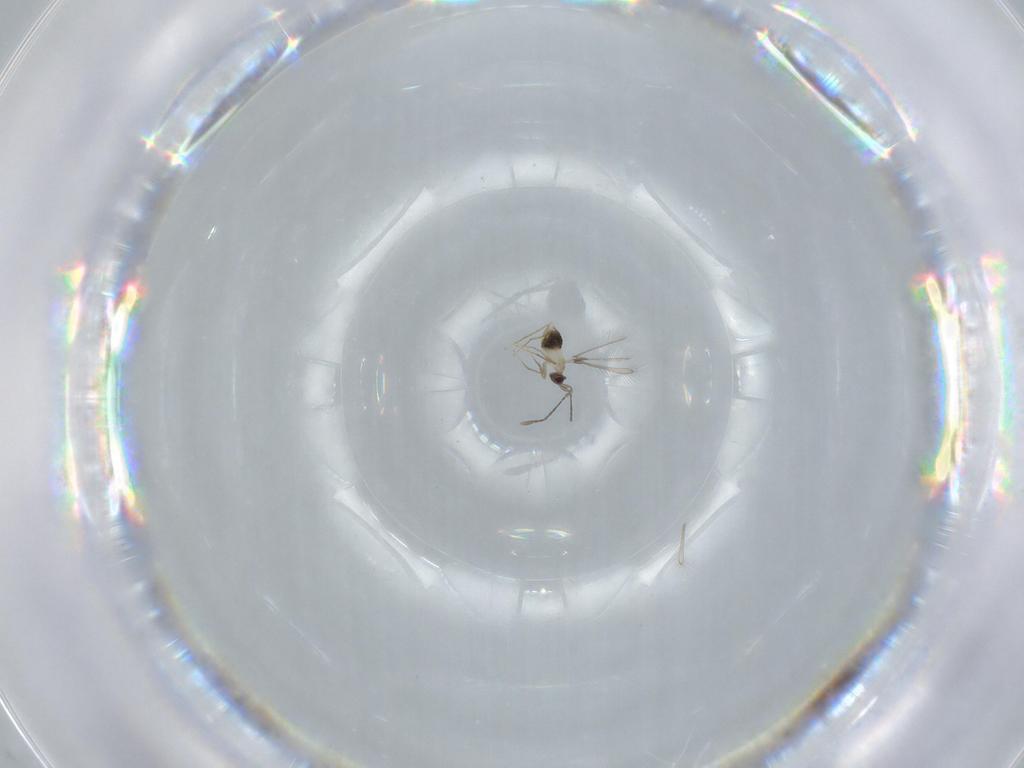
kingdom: Animalia
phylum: Arthropoda
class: Insecta
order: Hymenoptera
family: Mymaridae
